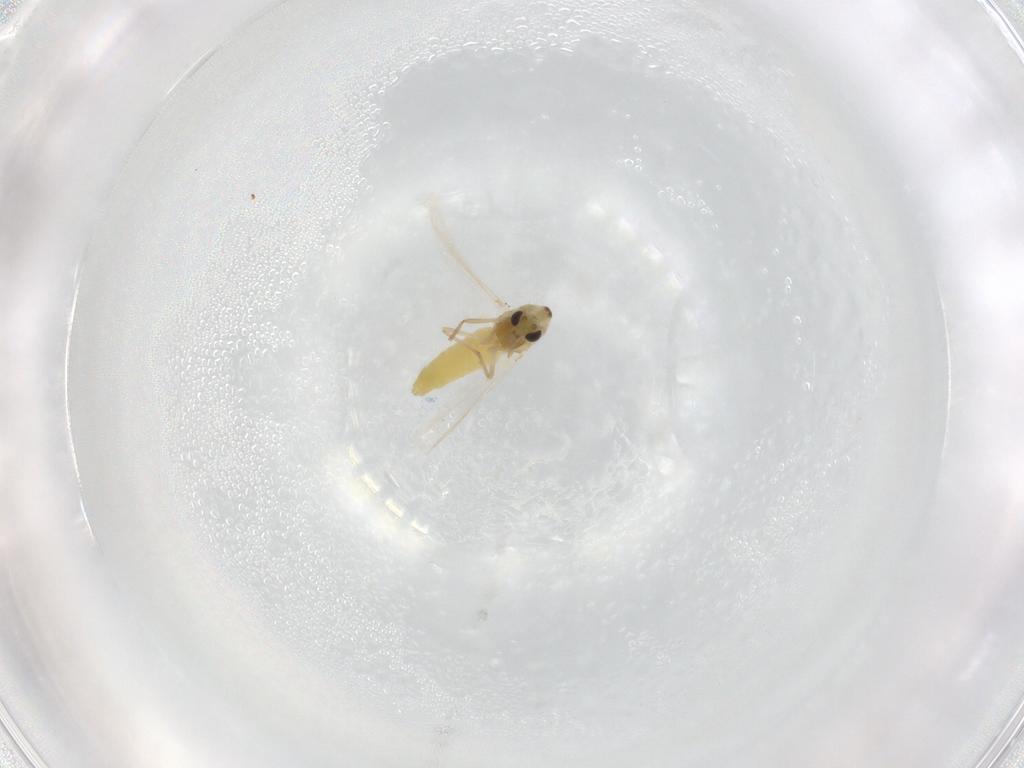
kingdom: Animalia
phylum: Arthropoda
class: Insecta
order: Diptera
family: Chironomidae
